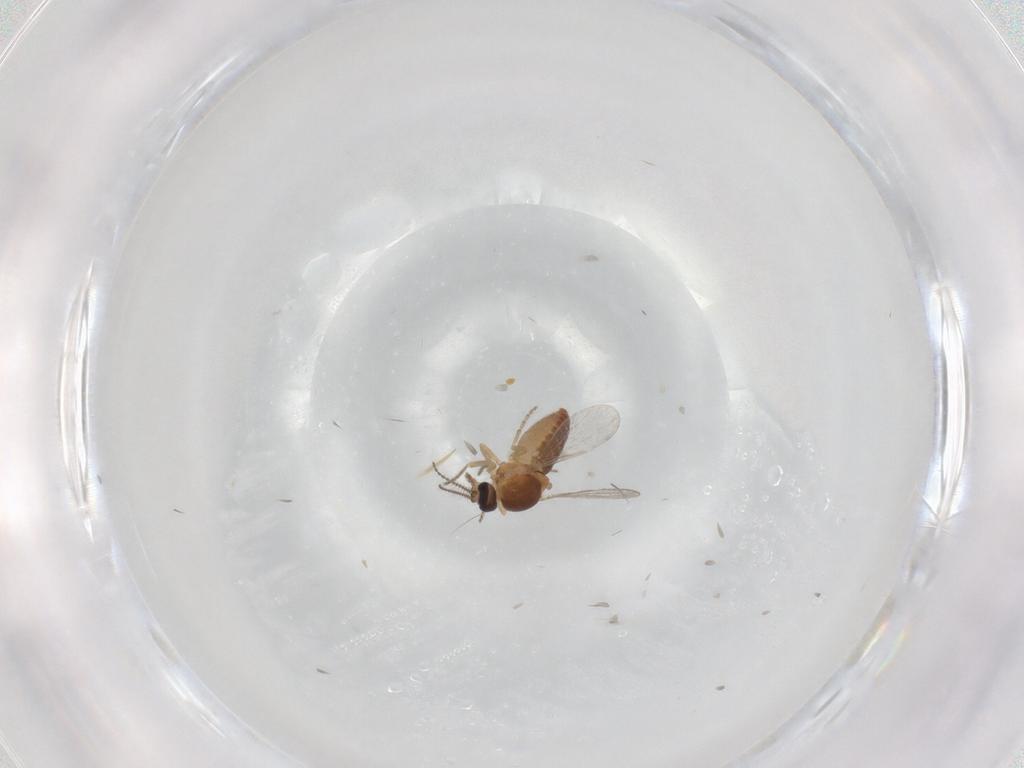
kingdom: Animalia
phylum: Arthropoda
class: Insecta
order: Diptera
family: Ceratopogonidae
